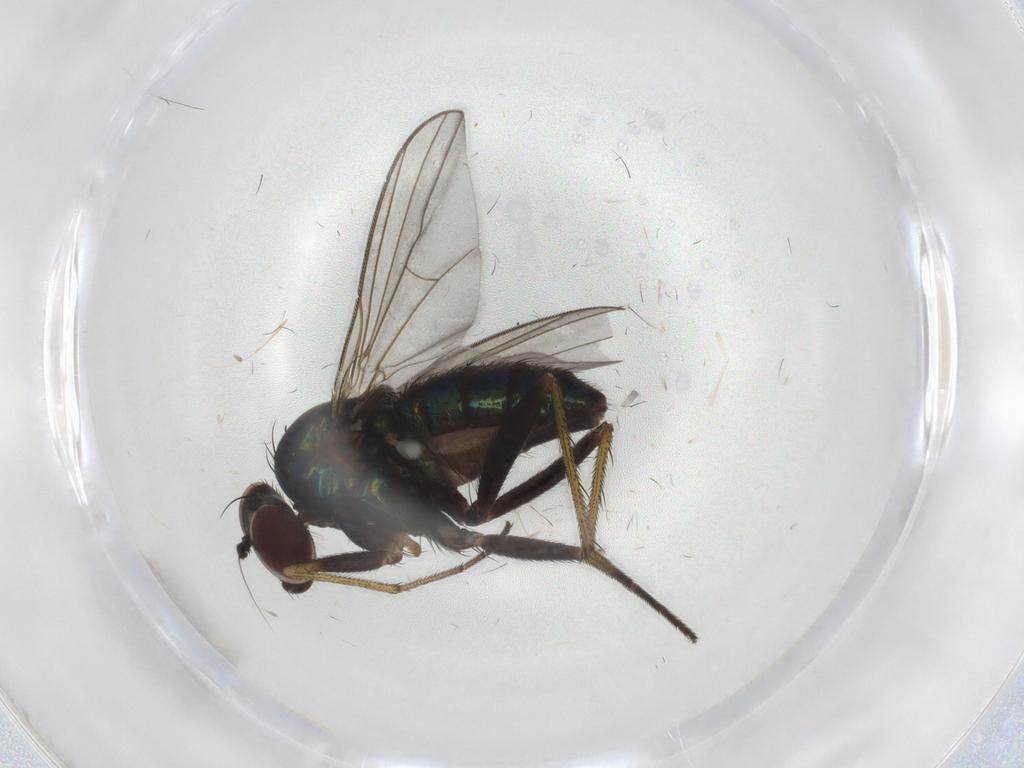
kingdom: Animalia
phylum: Arthropoda
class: Insecta
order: Diptera
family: Dolichopodidae
